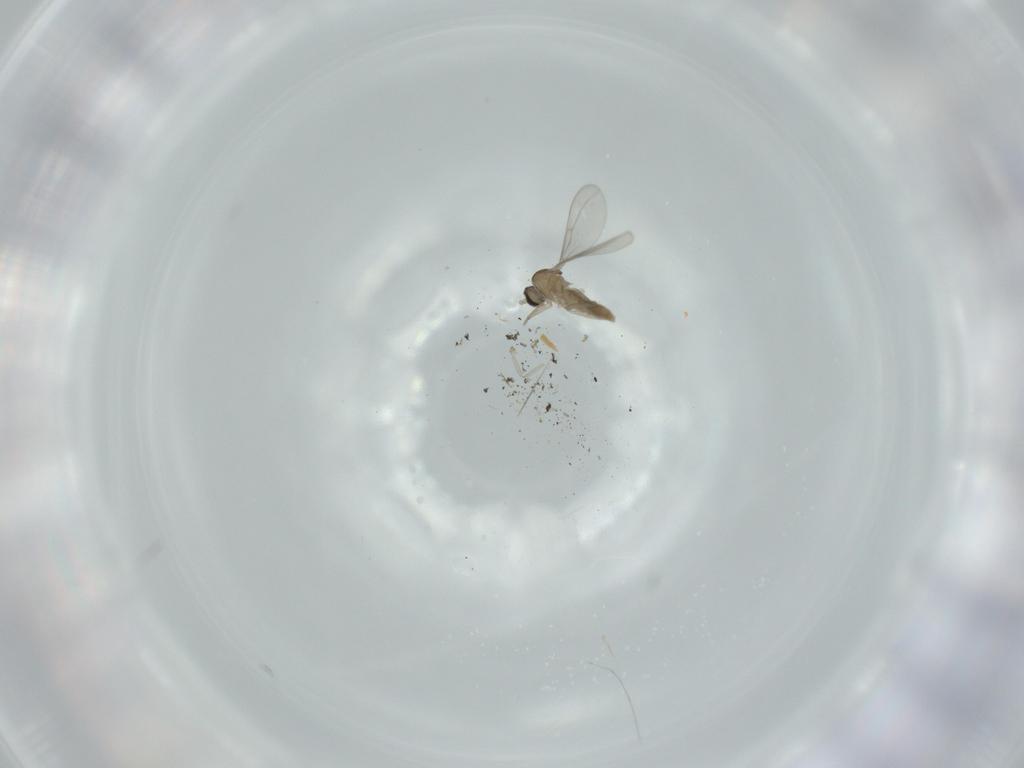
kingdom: Animalia
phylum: Arthropoda
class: Insecta
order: Diptera
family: Cecidomyiidae
